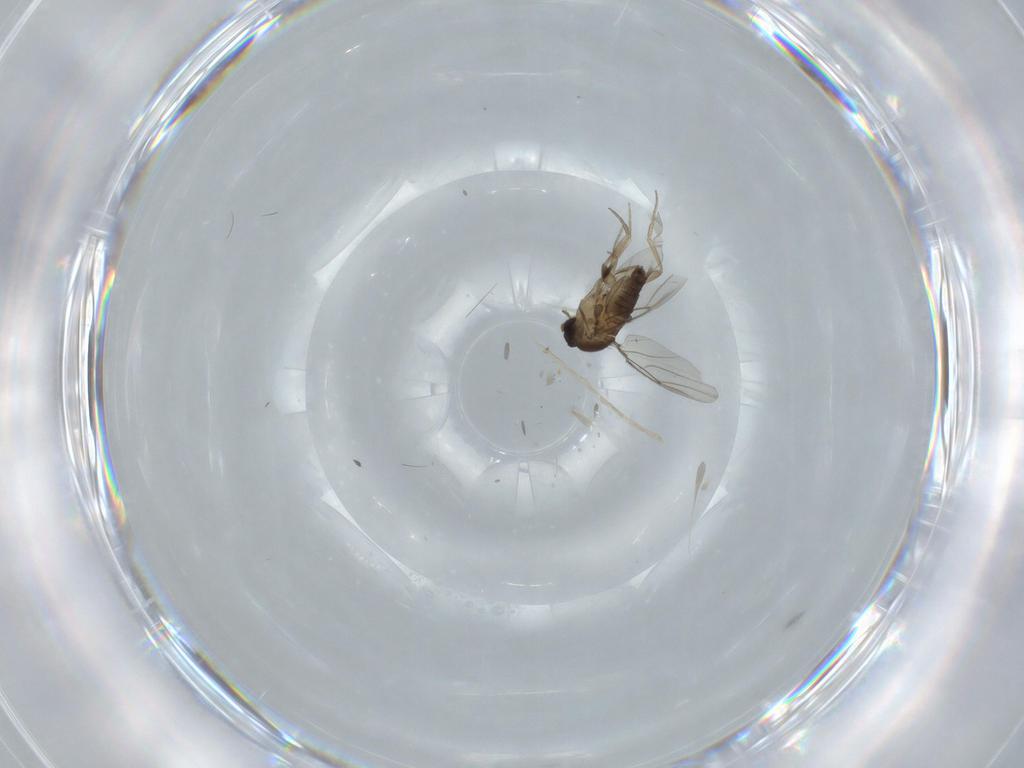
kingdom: Animalia
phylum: Arthropoda
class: Insecta
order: Diptera
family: Phoridae
